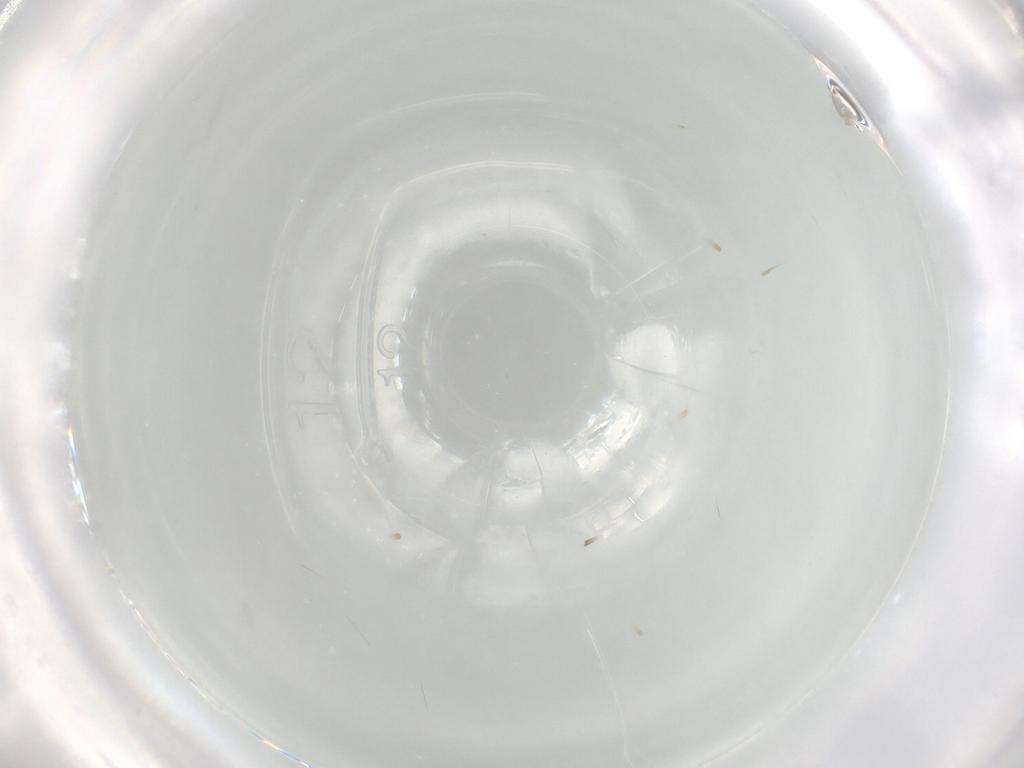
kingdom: Animalia
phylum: Arthropoda
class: Collembola
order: Entomobryomorpha
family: Entomobryidae
